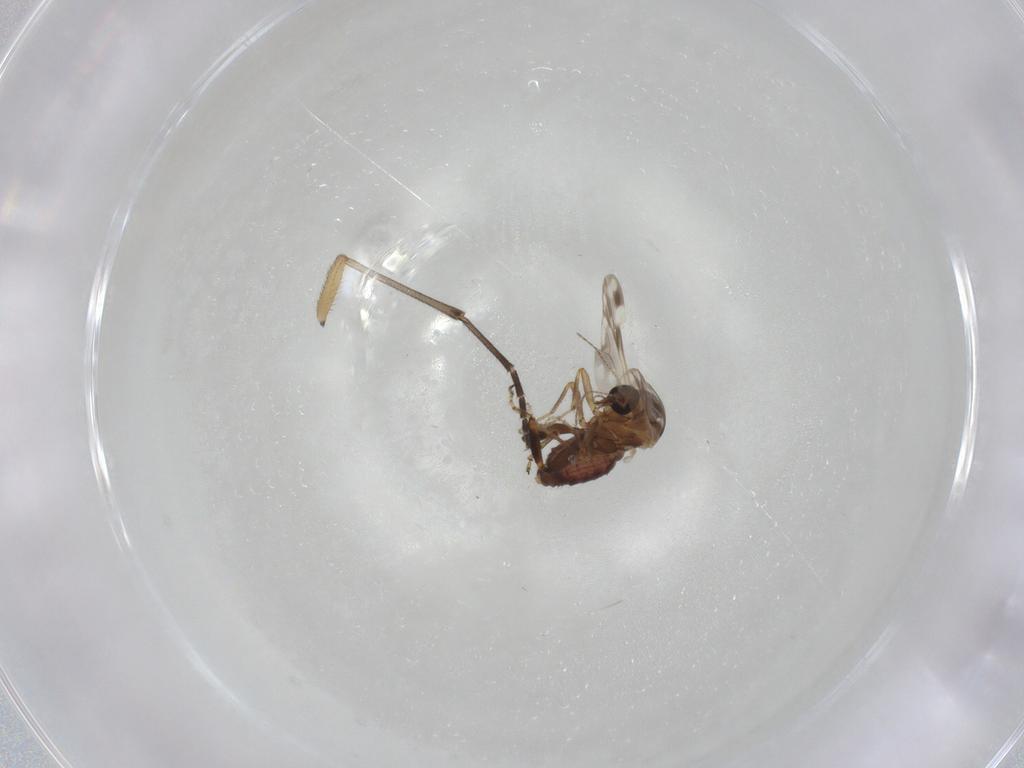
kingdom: Animalia
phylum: Arthropoda
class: Insecta
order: Diptera
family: Ceratopogonidae
